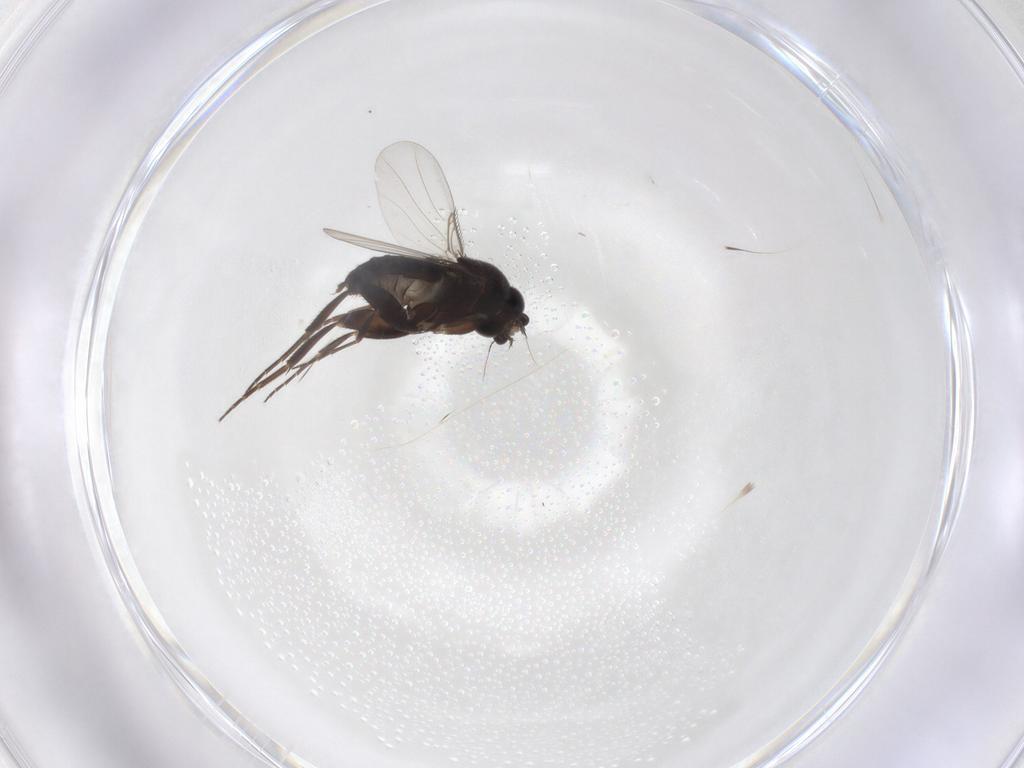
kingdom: Animalia
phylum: Arthropoda
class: Insecta
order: Diptera
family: Phoridae
